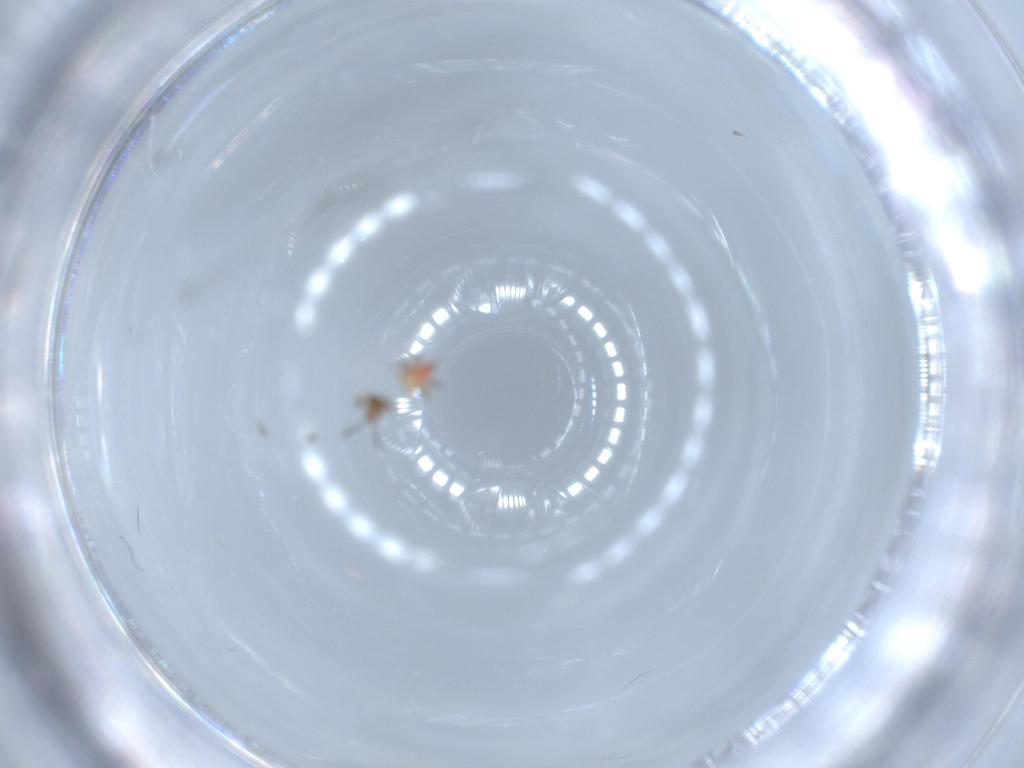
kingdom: Animalia
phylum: Arthropoda
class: Insecta
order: Thysanoptera
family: Phlaeothripidae
